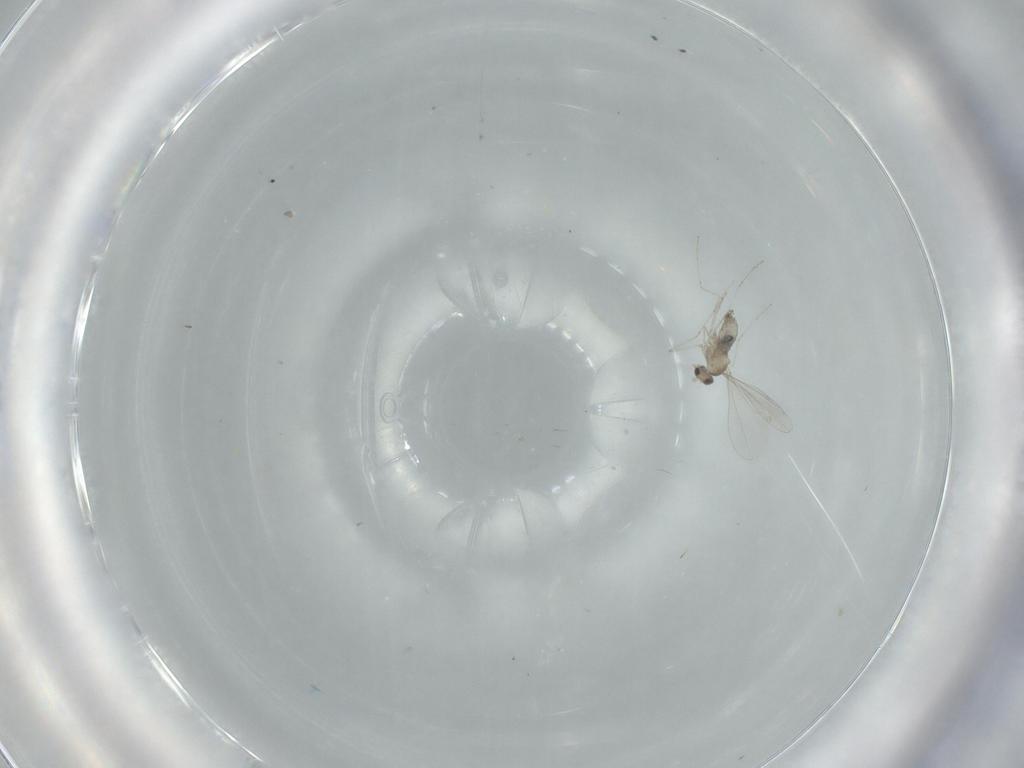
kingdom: Animalia
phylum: Arthropoda
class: Insecta
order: Diptera
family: Cecidomyiidae
